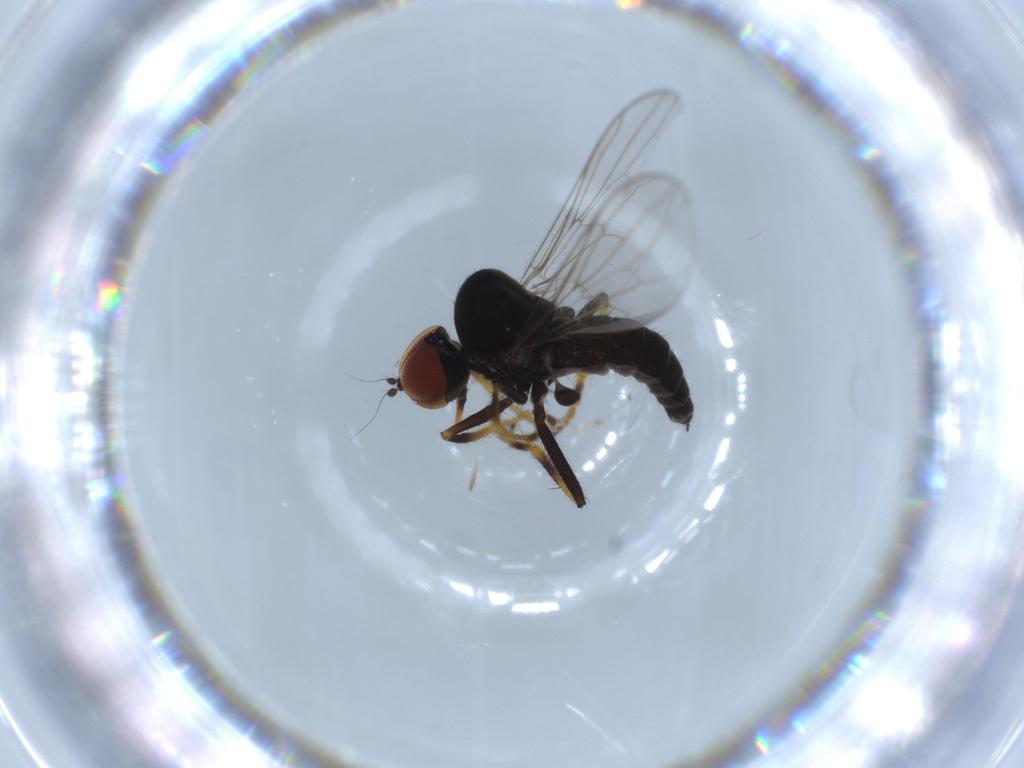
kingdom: Animalia
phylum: Arthropoda
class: Insecta
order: Diptera
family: Hybotidae
